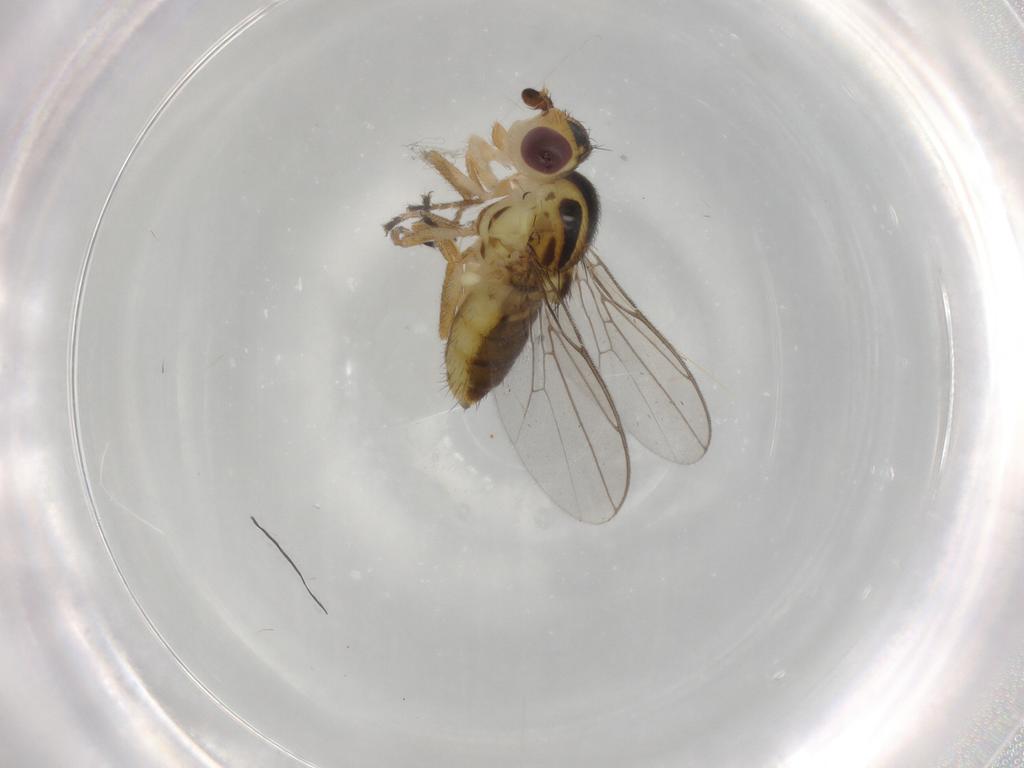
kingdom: Animalia
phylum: Arthropoda
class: Insecta
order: Diptera
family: Chloropidae
